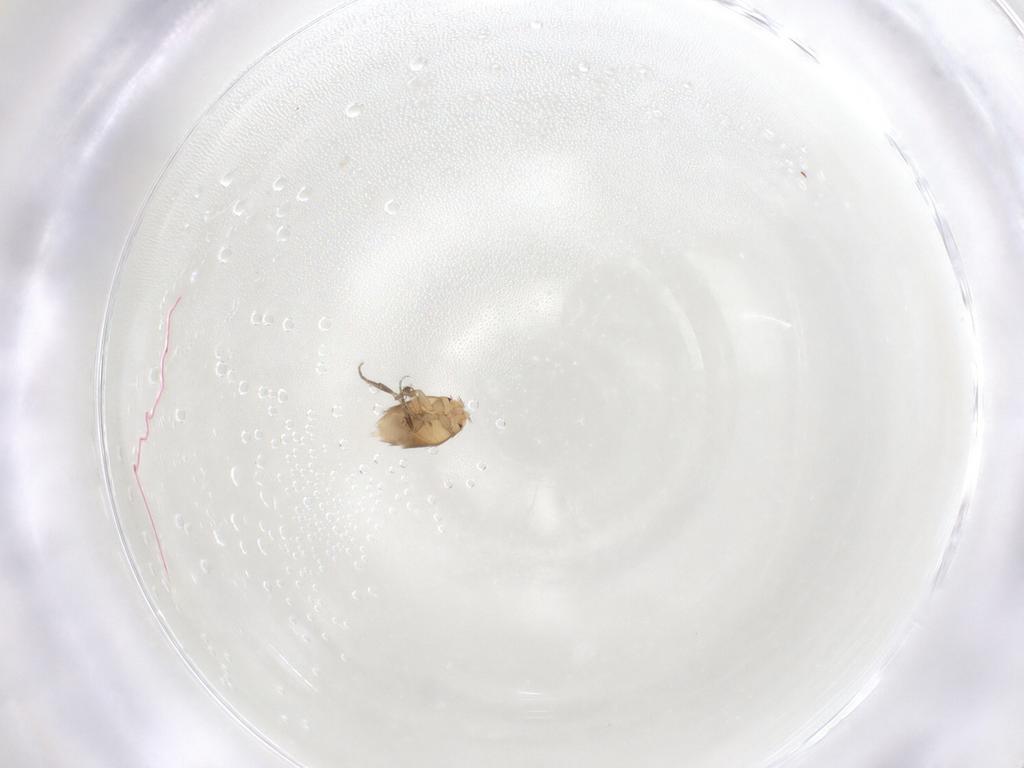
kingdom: Animalia
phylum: Arthropoda
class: Insecta
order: Diptera
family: Phoridae
